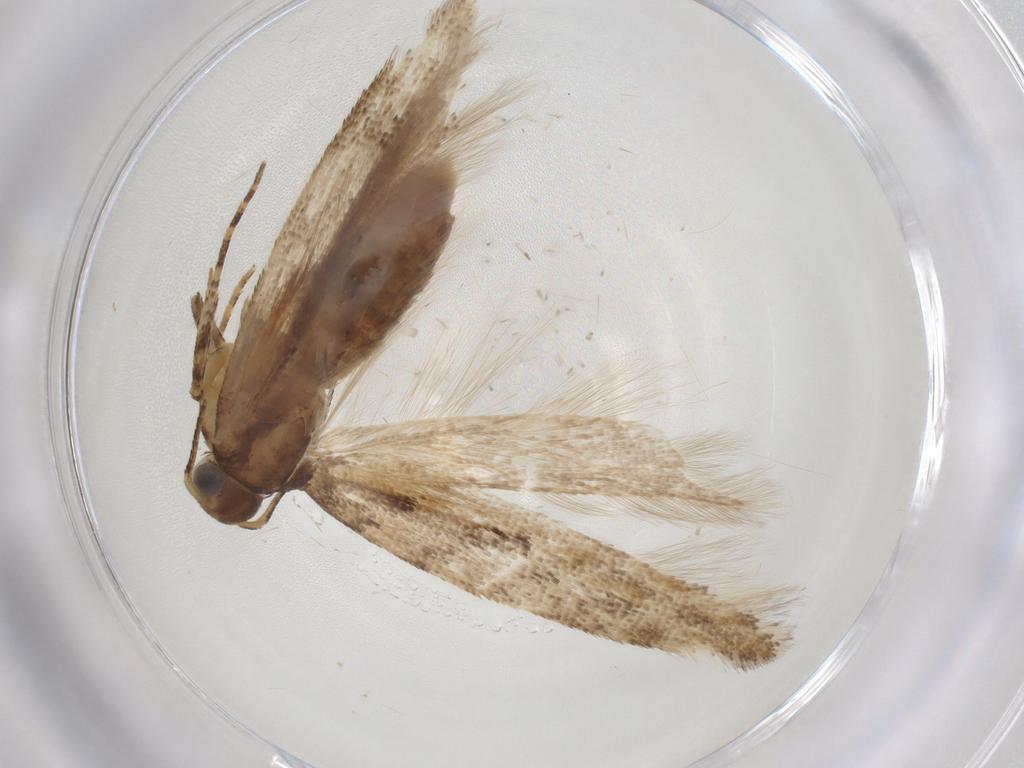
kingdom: Animalia
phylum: Arthropoda
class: Insecta
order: Lepidoptera
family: Gelechiidae
